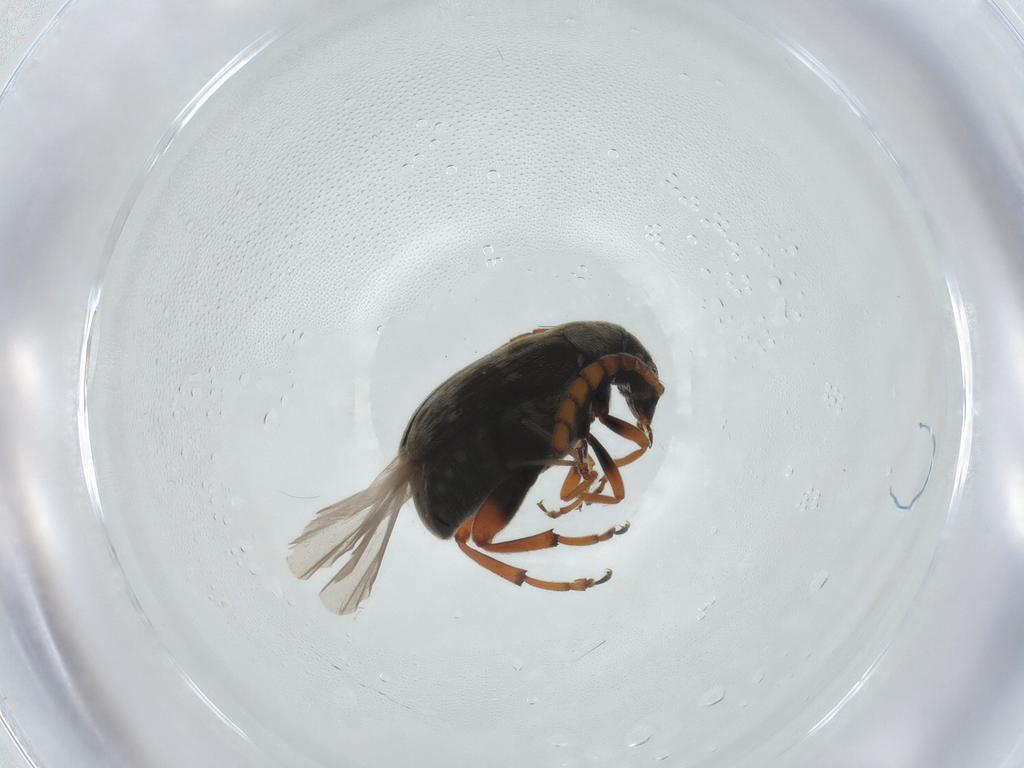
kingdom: Animalia
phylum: Arthropoda
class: Insecta
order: Coleoptera
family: Chrysomelidae
